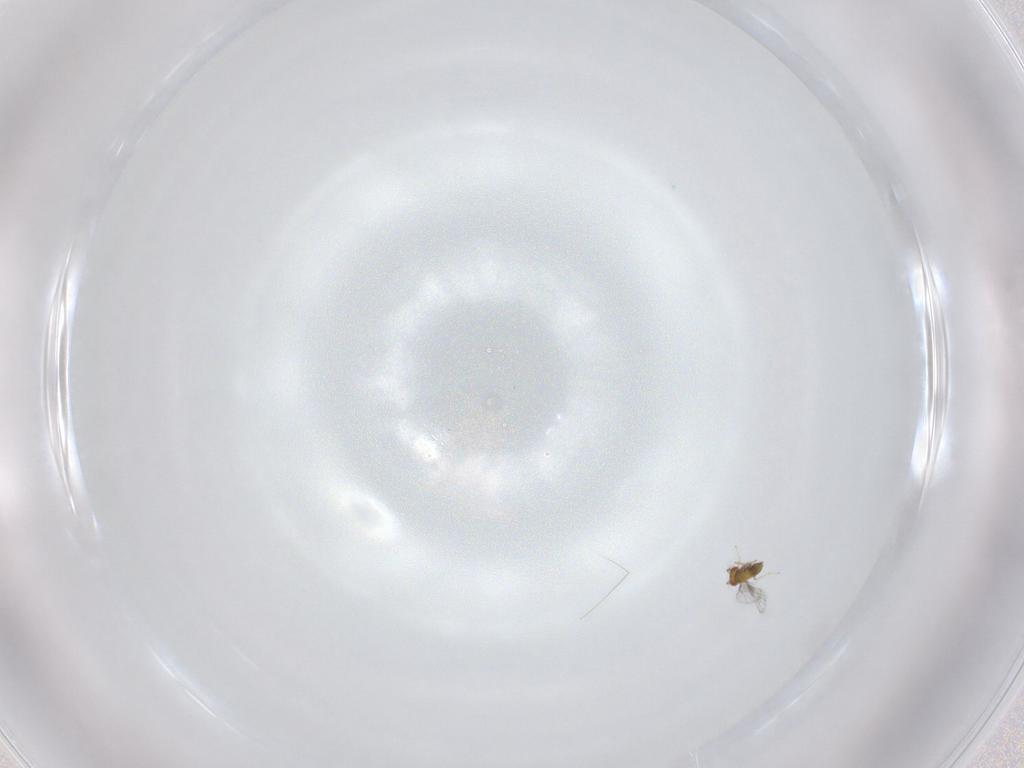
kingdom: Animalia
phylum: Arthropoda
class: Insecta
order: Hymenoptera
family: Trichogrammatidae
